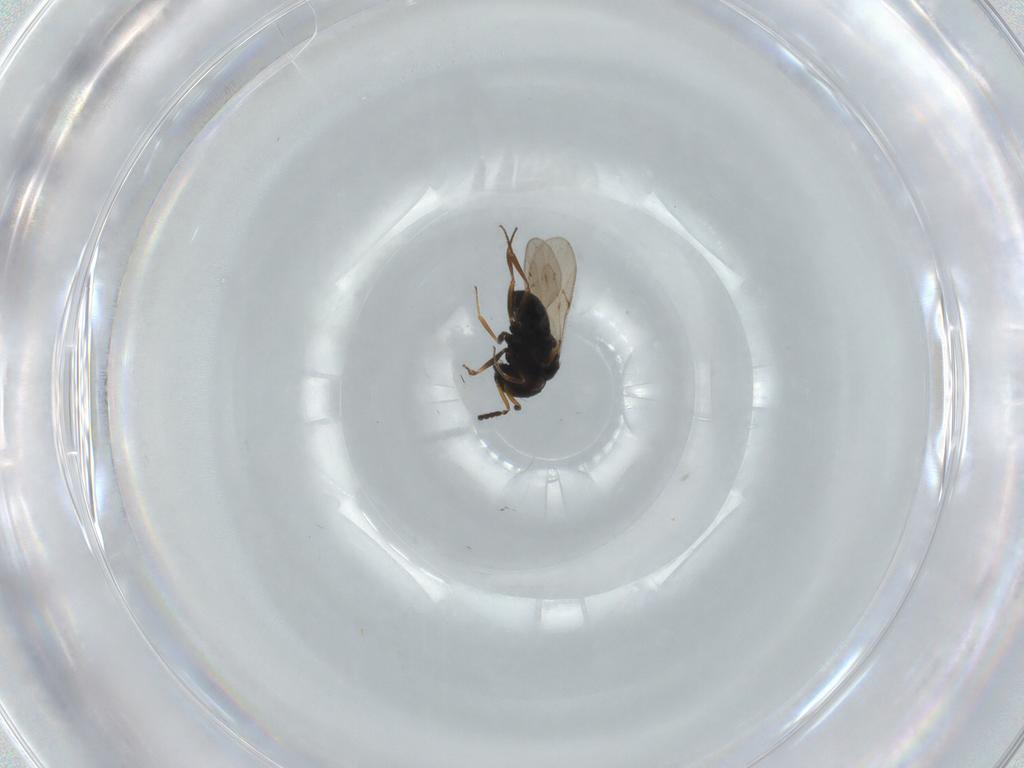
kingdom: Animalia
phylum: Arthropoda
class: Insecta
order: Hymenoptera
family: Scelionidae
